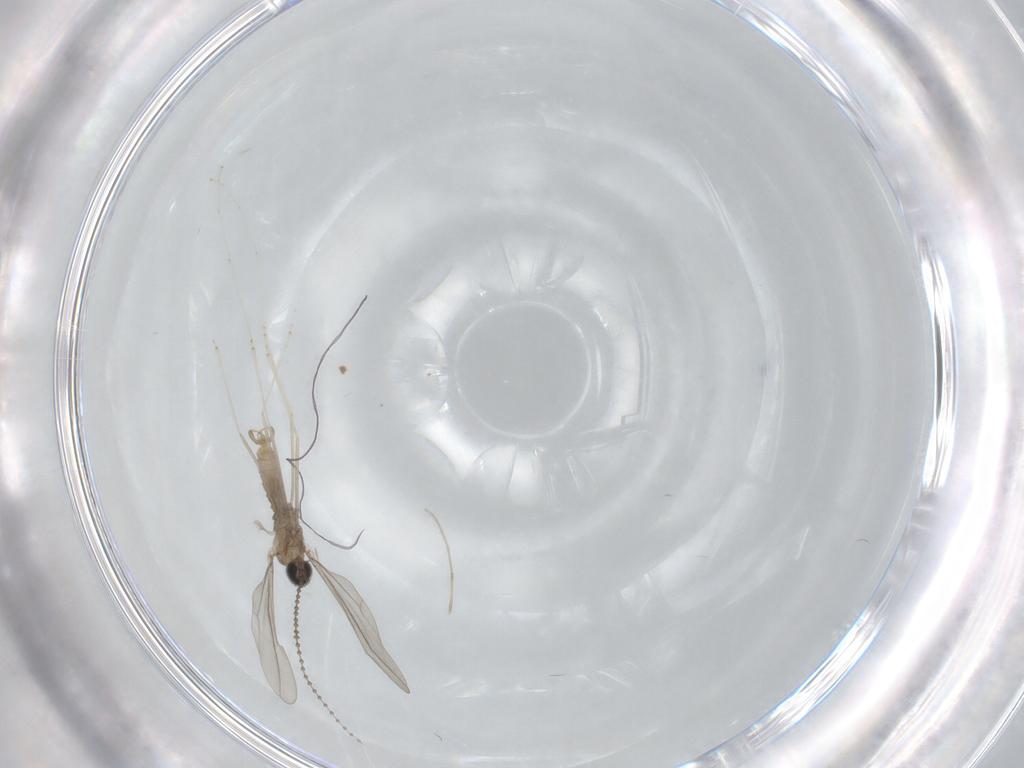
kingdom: Animalia
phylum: Arthropoda
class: Insecta
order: Diptera
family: Cecidomyiidae
